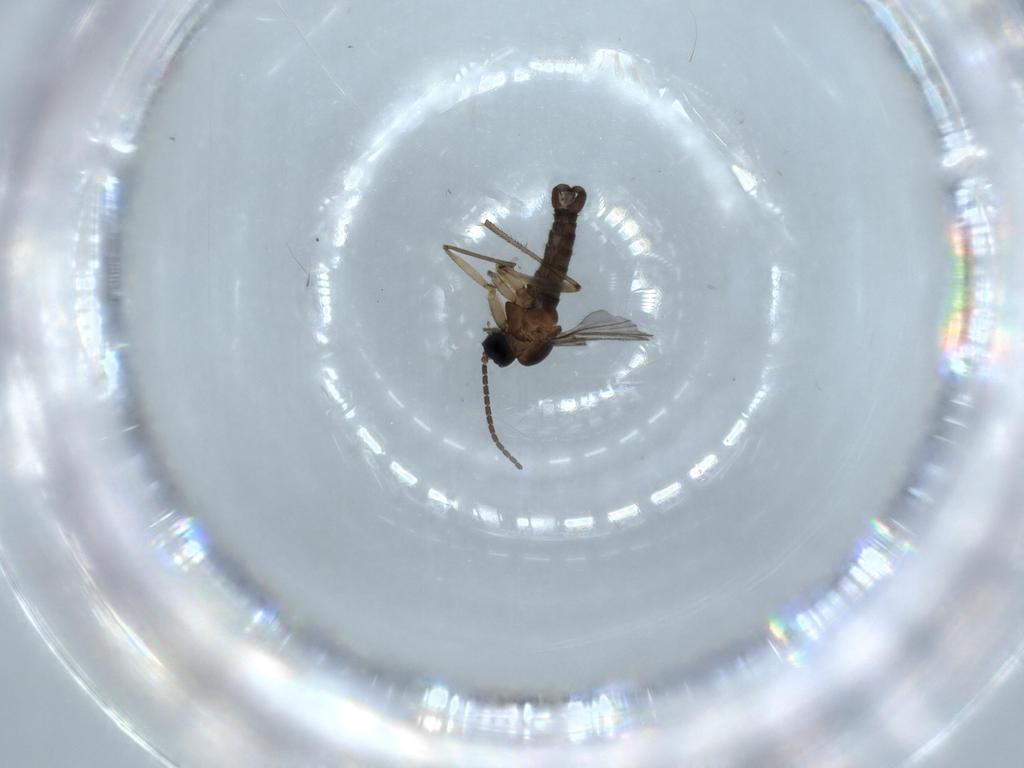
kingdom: Animalia
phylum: Arthropoda
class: Insecta
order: Diptera
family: Sciaridae
